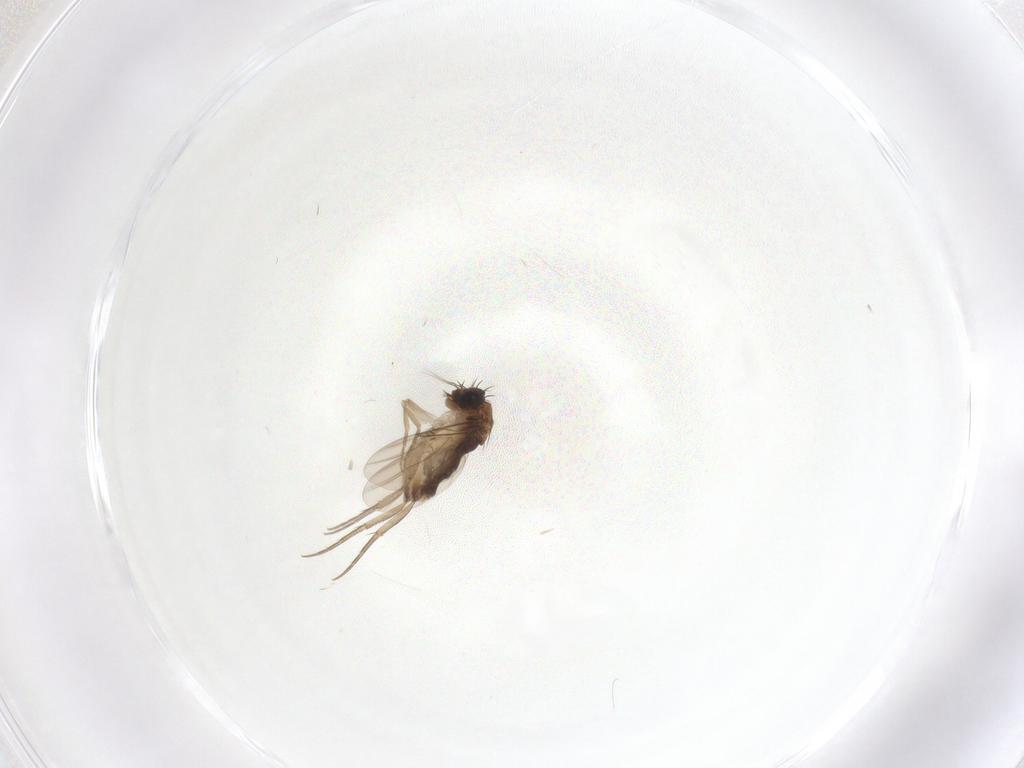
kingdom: Animalia
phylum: Arthropoda
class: Insecta
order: Diptera
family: Phoridae
